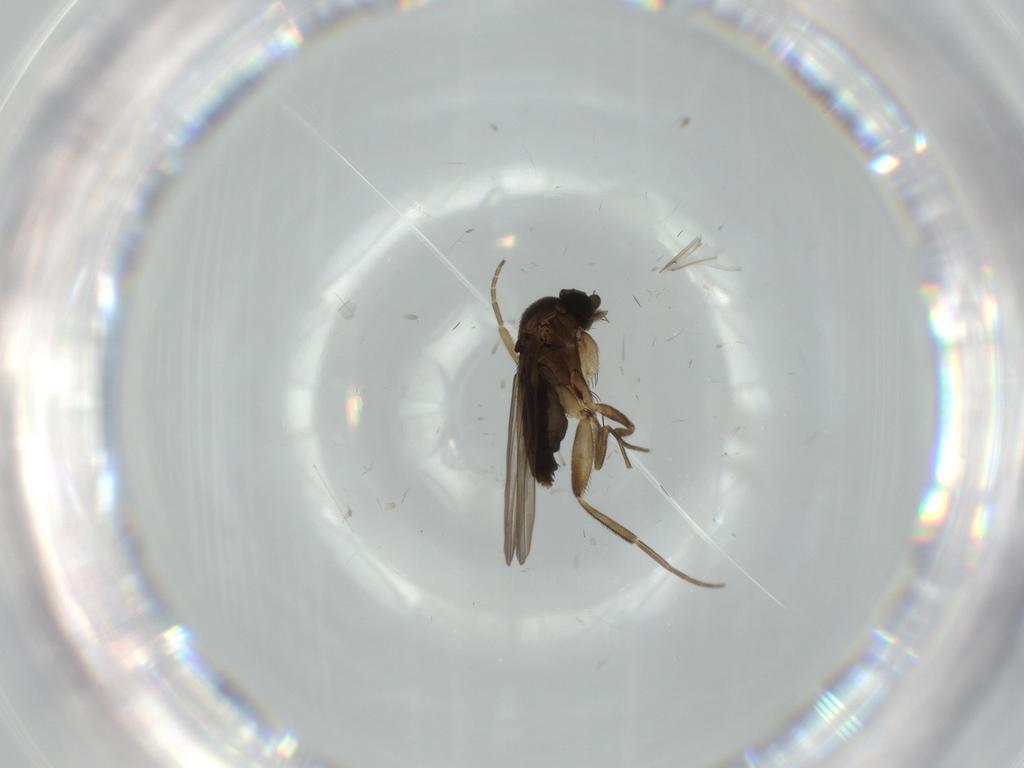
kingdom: Animalia
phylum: Arthropoda
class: Insecta
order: Diptera
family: Phoridae
